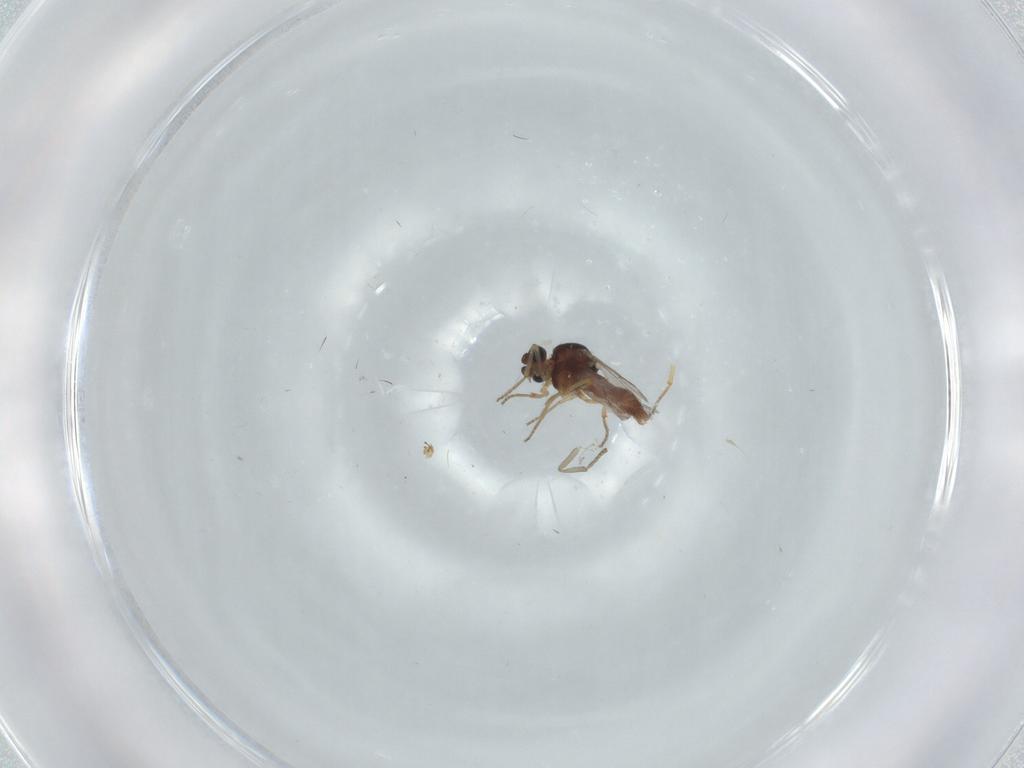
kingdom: Animalia
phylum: Arthropoda
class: Insecta
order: Diptera
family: Ceratopogonidae
